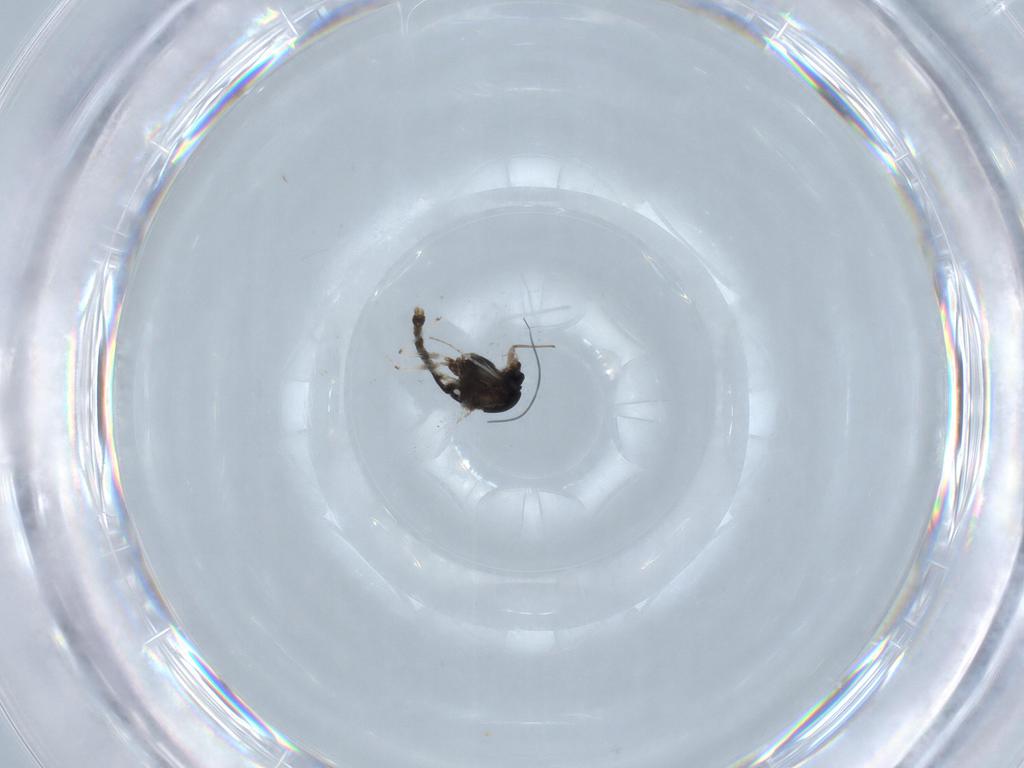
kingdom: Animalia
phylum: Arthropoda
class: Insecta
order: Diptera
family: Chironomidae
